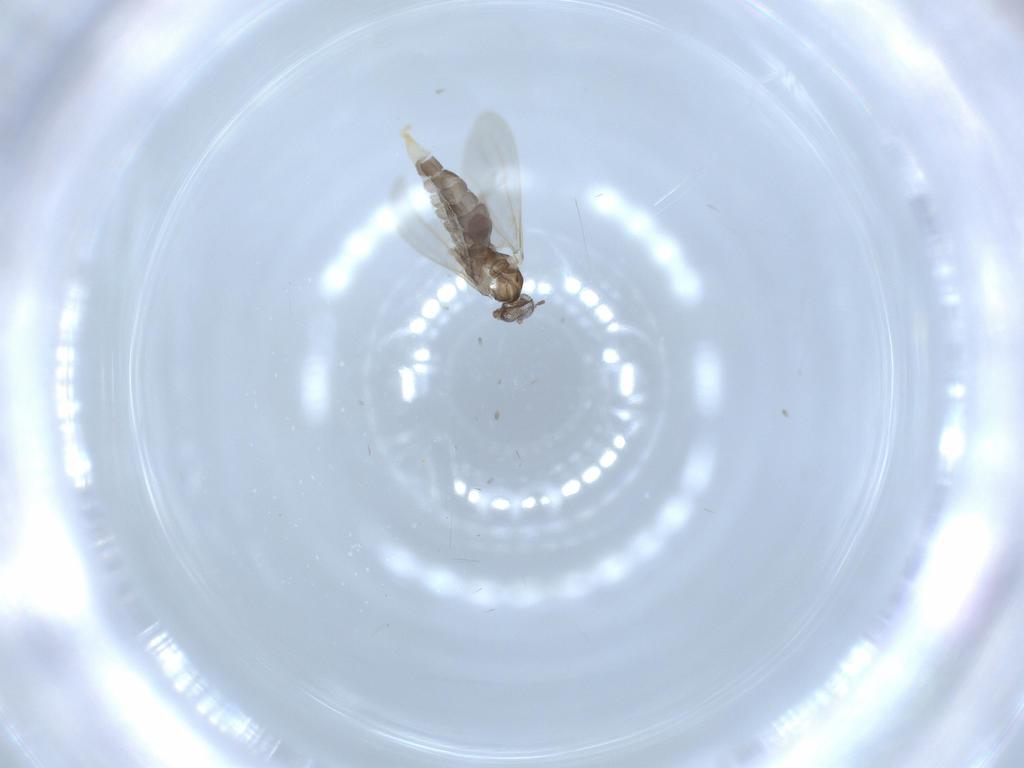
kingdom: Animalia
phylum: Arthropoda
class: Insecta
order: Diptera
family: Cecidomyiidae
